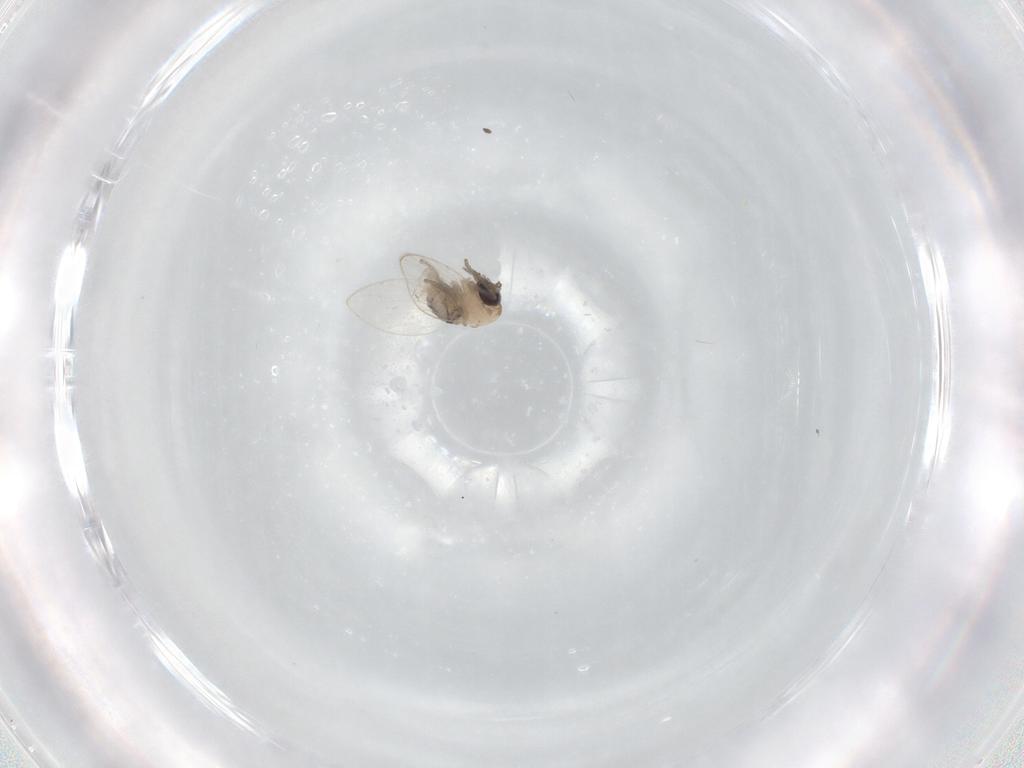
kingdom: Animalia
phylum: Arthropoda
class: Insecta
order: Diptera
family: Psychodidae
